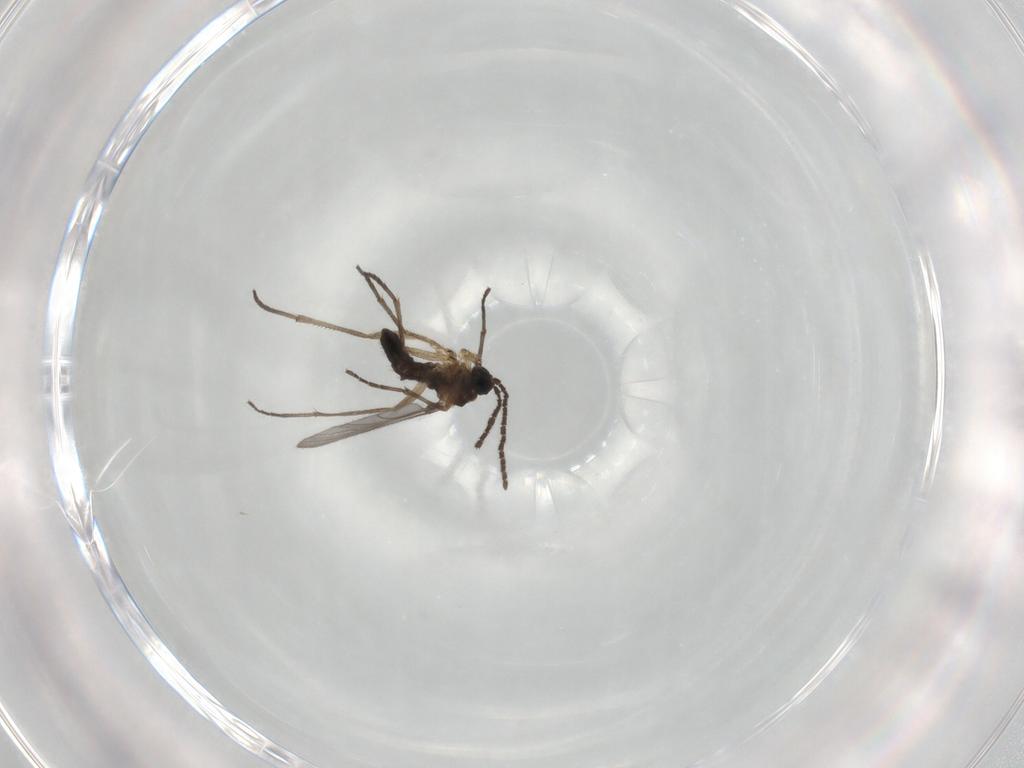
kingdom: Animalia
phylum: Arthropoda
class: Insecta
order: Diptera
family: Sciaridae
